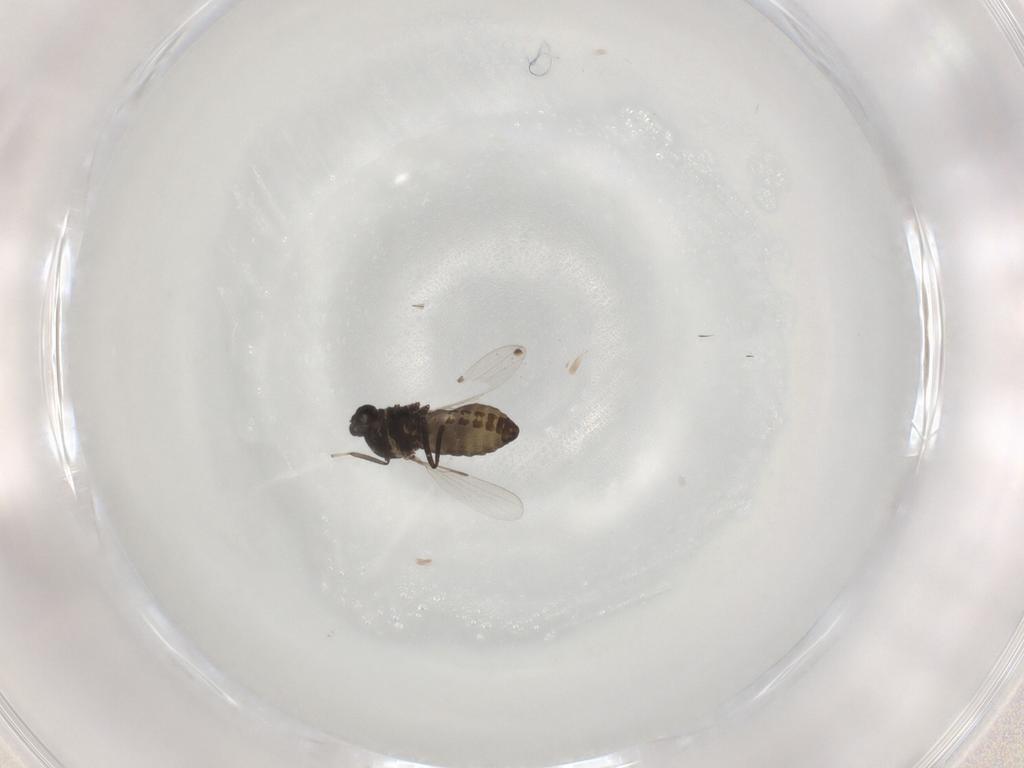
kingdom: Animalia
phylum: Arthropoda
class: Insecta
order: Diptera
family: Ceratopogonidae
